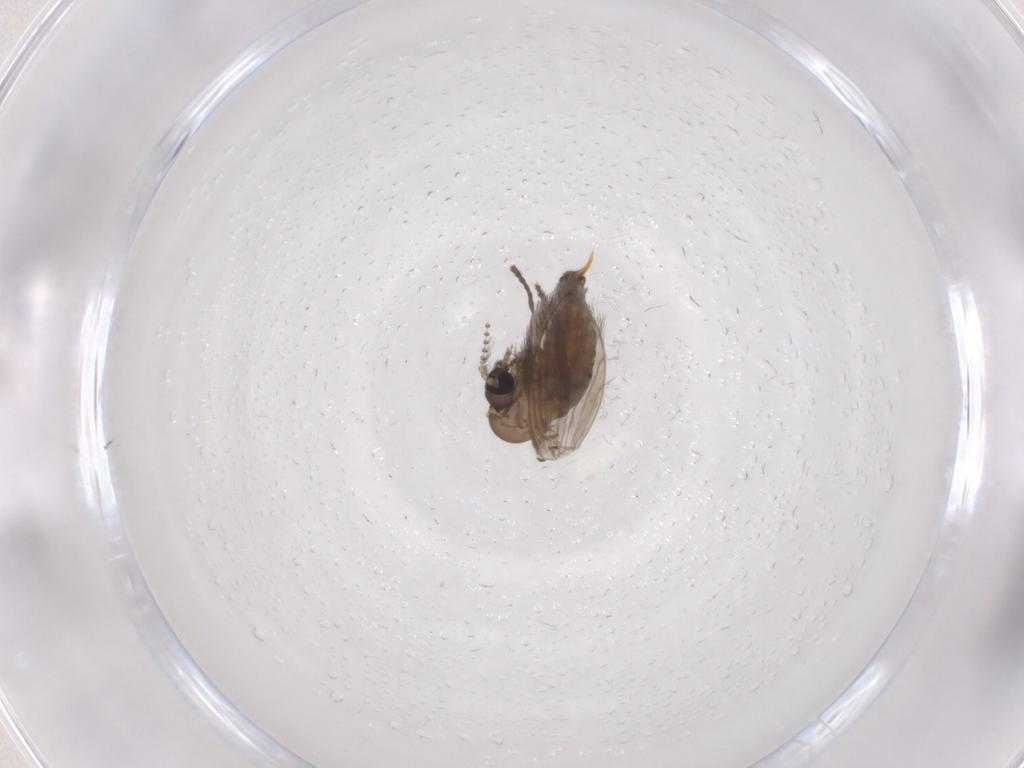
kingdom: Animalia
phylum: Arthropoda
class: Insecta
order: Diptera
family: Psychodidae
